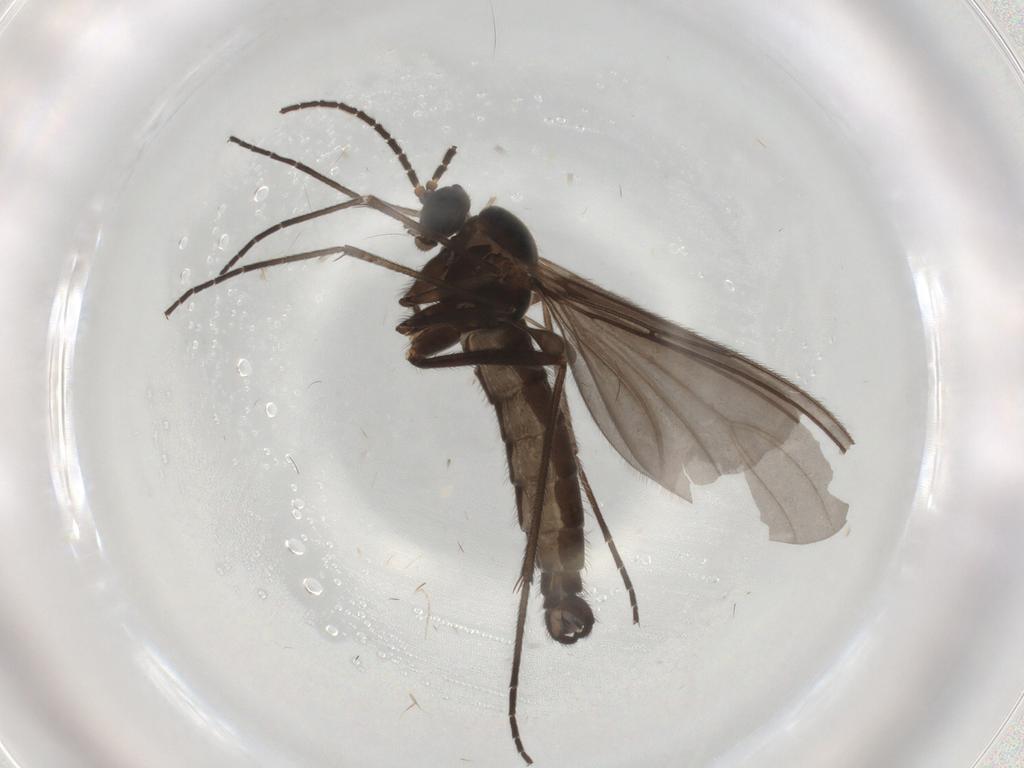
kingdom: Animalia
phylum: Arthropoda
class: Insecta
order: Diptera
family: Sciaridae
